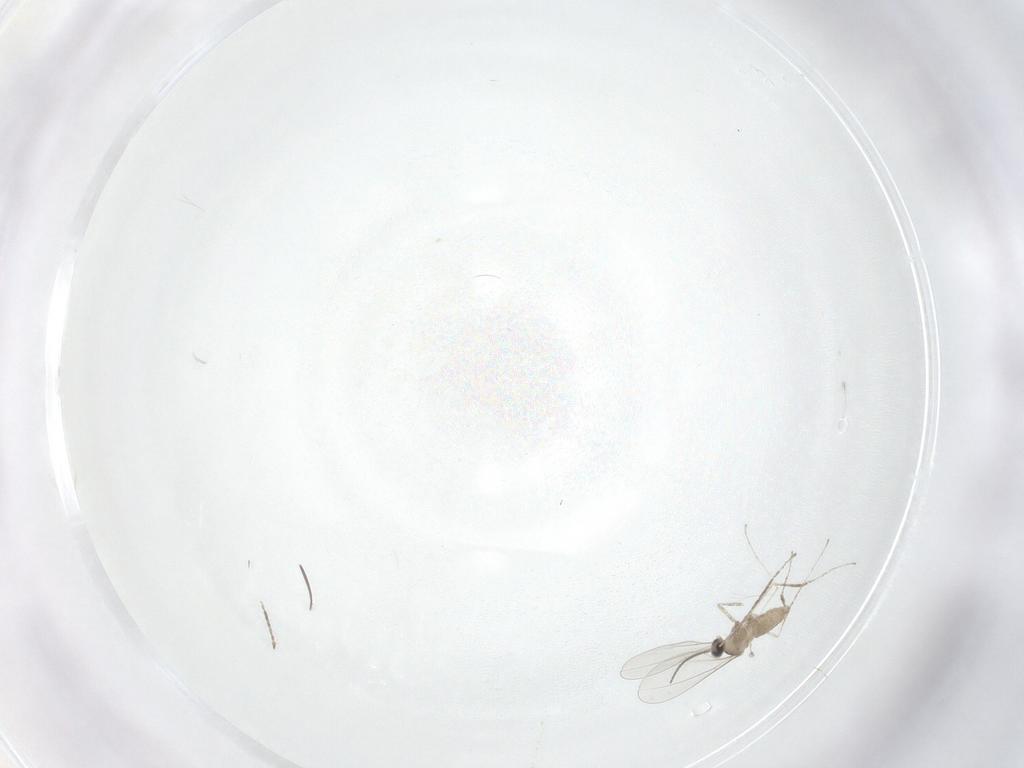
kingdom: Animalia
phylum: Arthropoda
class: Insecta
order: Diptera
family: Cecidomyiidae
